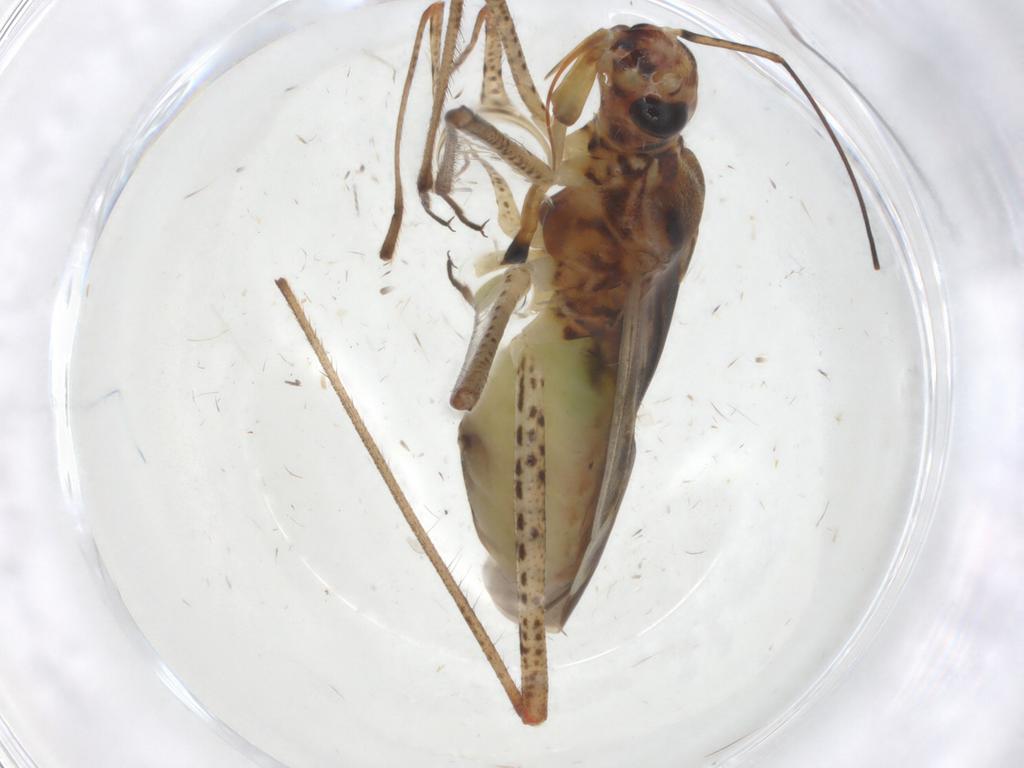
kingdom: Animalia
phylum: Arthropoda
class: Insecta
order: Hemiptera
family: Miridae
